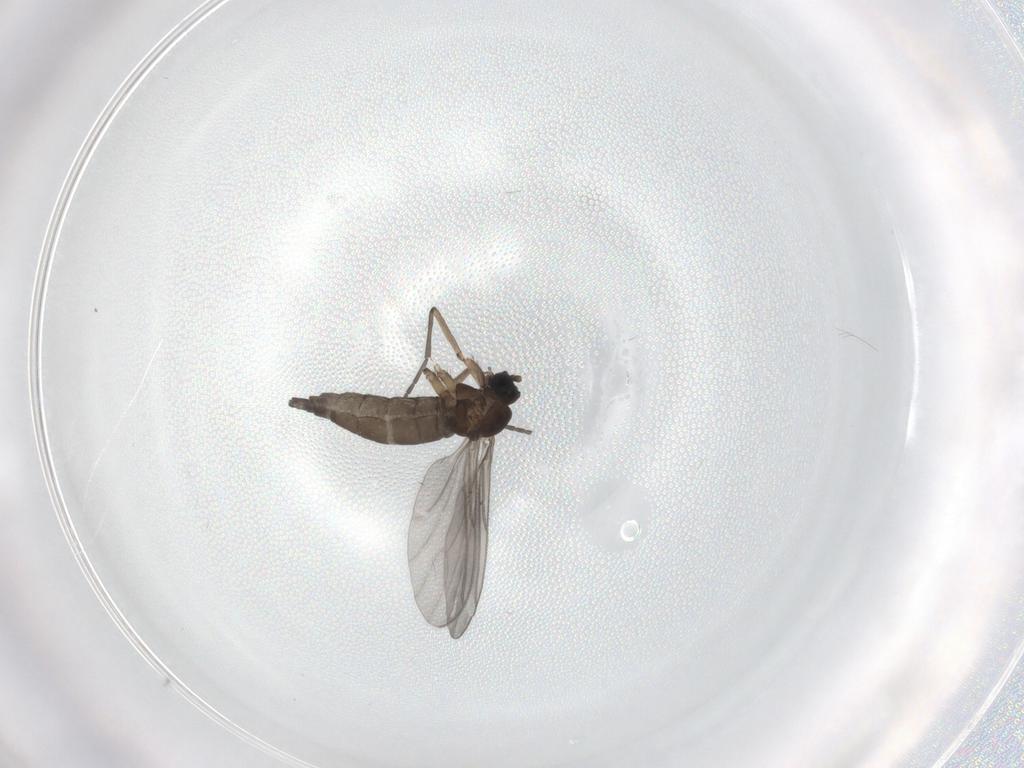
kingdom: Animalia
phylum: Arthropoda
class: Insecta
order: Diptera
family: Sciaridae
